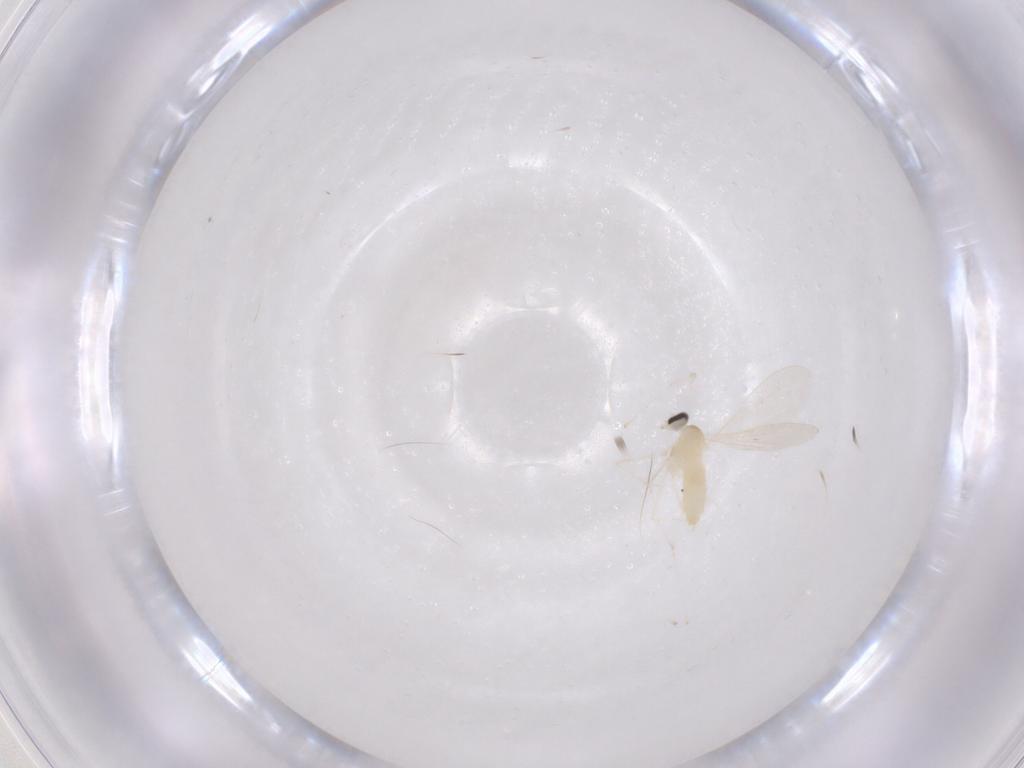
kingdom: Animalia
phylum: Arthropoda
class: Insecta
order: Diptera
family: Cecidomyiidae
